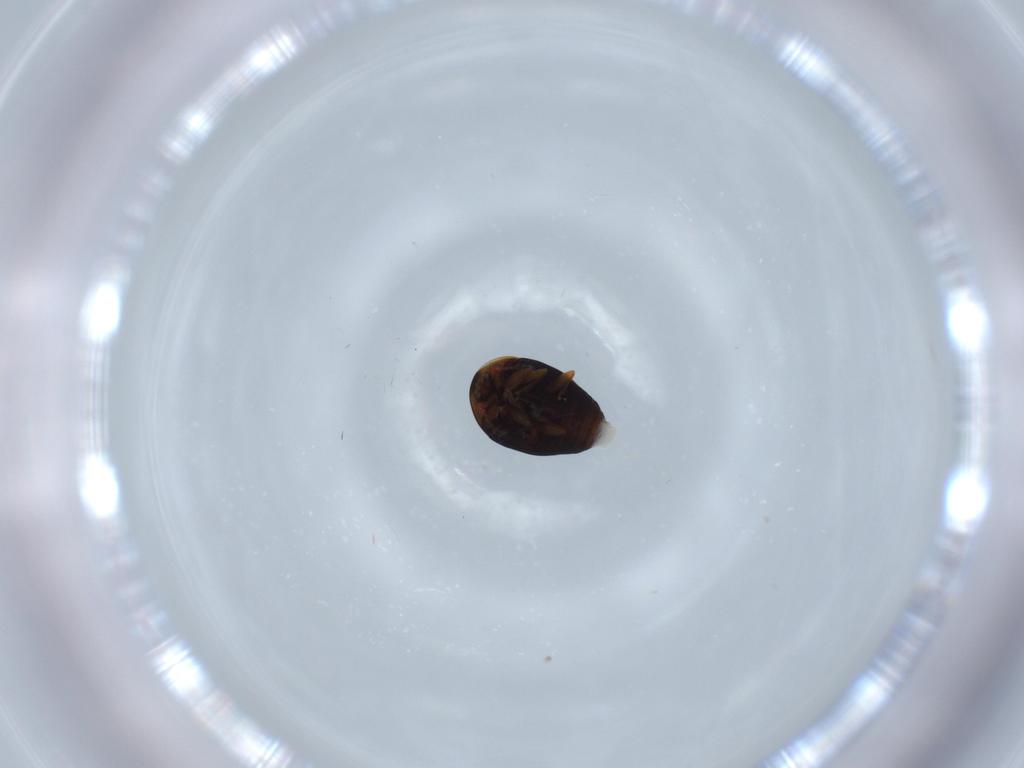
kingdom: Animalia
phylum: Arthropoda
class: Insecta
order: Coleoptera
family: Corylophidae
